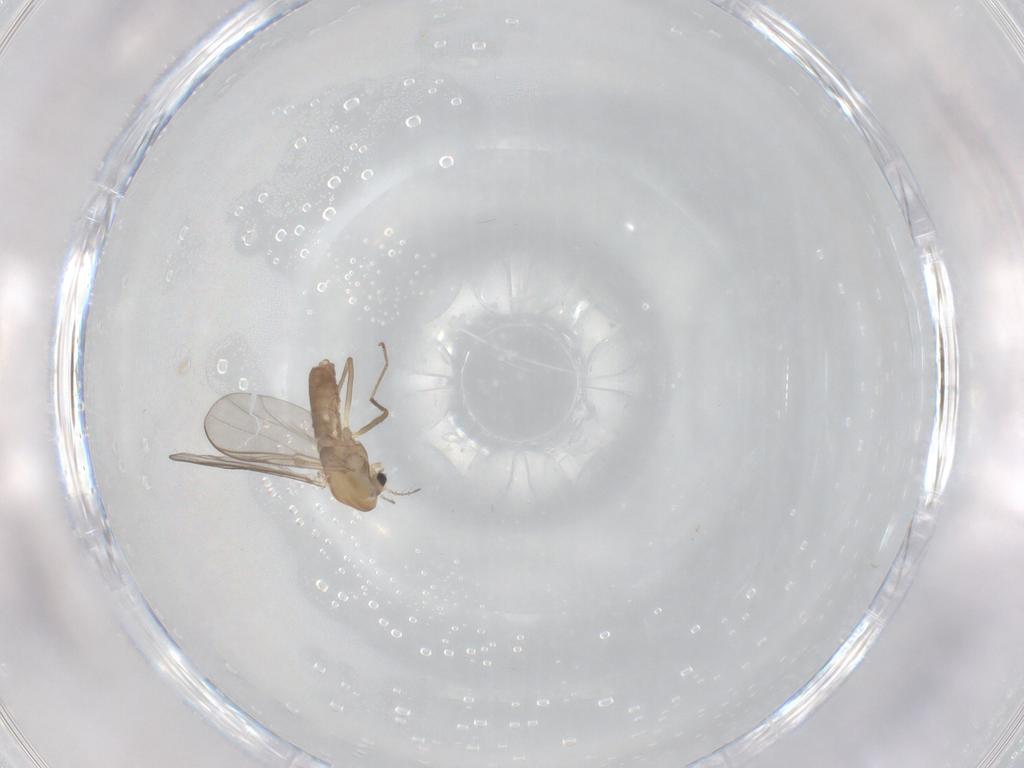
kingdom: Animalia
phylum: Arthropoda
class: Insecta
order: Diptera
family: Chironomidae
